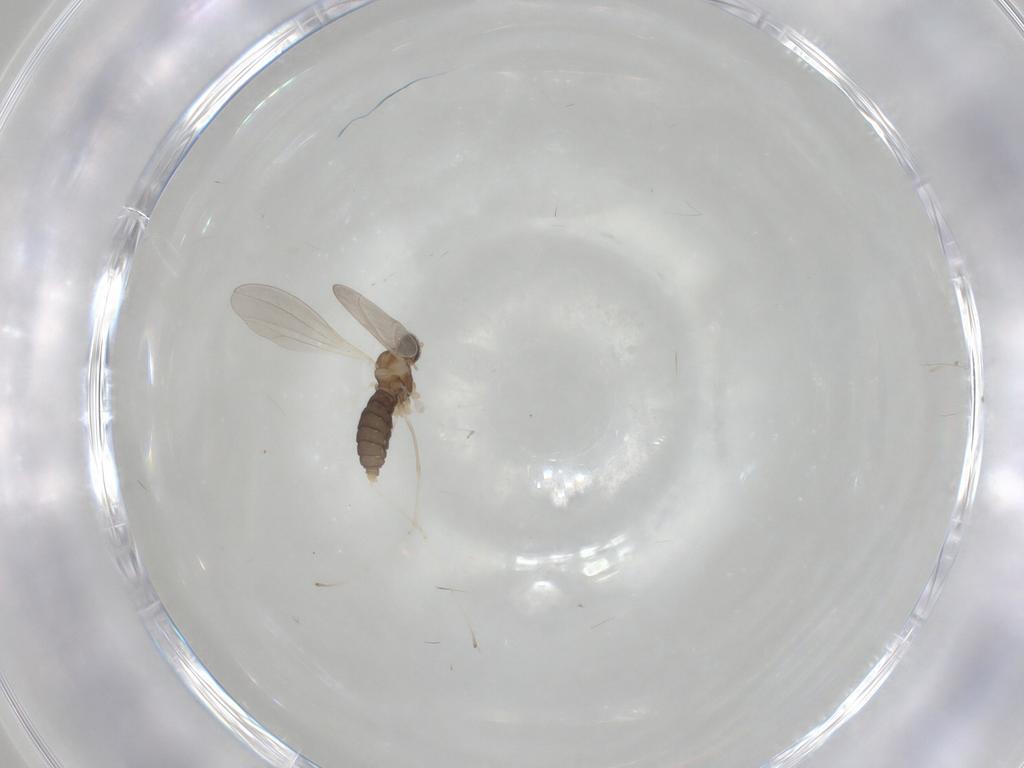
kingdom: Animalia
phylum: Arthropoda
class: Insecta
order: Diptera
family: Cecidomyiidae
